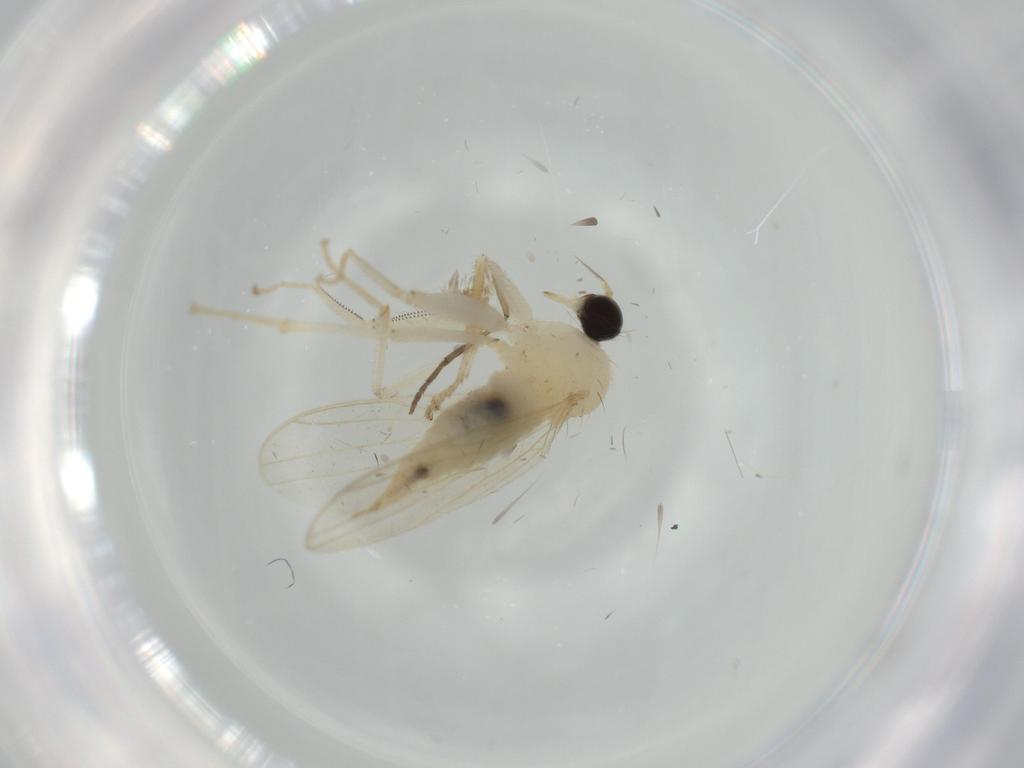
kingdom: Animalia
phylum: Arthropoda
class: Insecta
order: Diptera
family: Hybotidae
